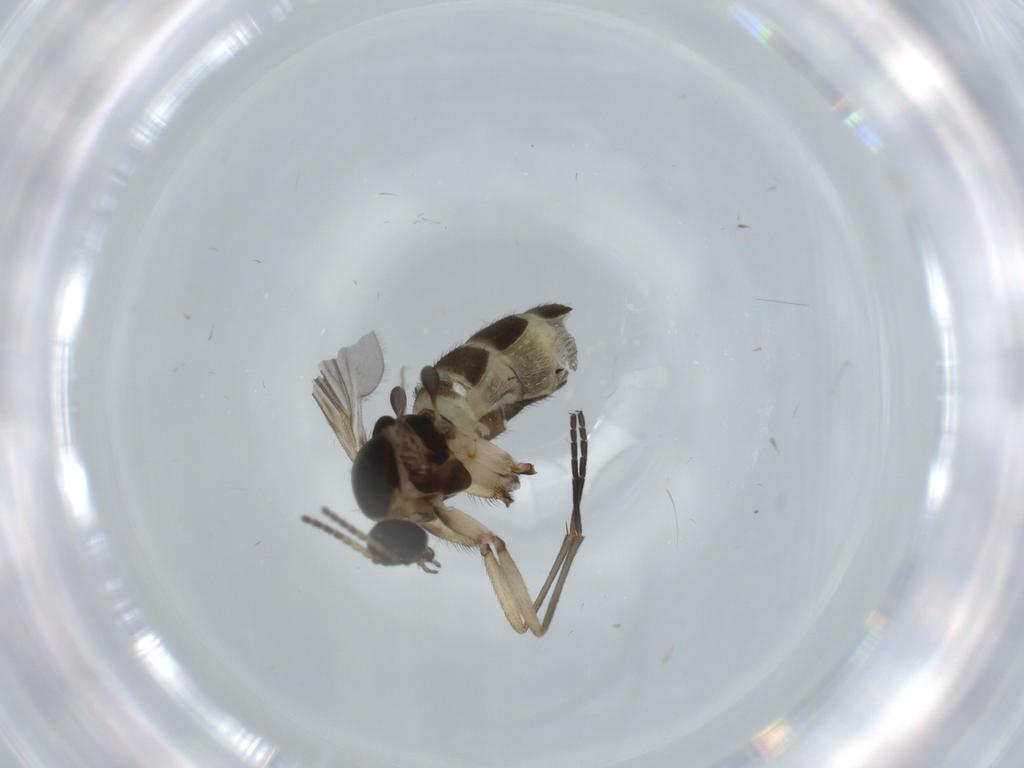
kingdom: Animalia
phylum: Arthropoda
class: Insecta
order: Diptera
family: Sciaridae
